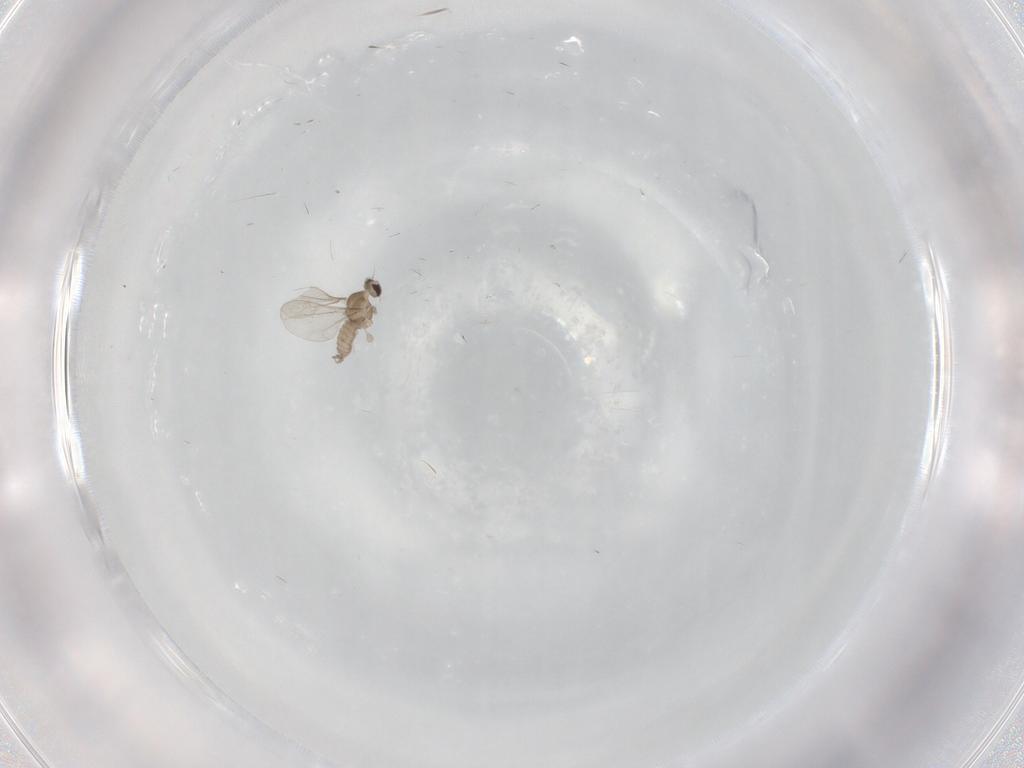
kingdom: Animalia
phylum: Arthropoda
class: Insecta
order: Diptera
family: Cecidomyiidae
